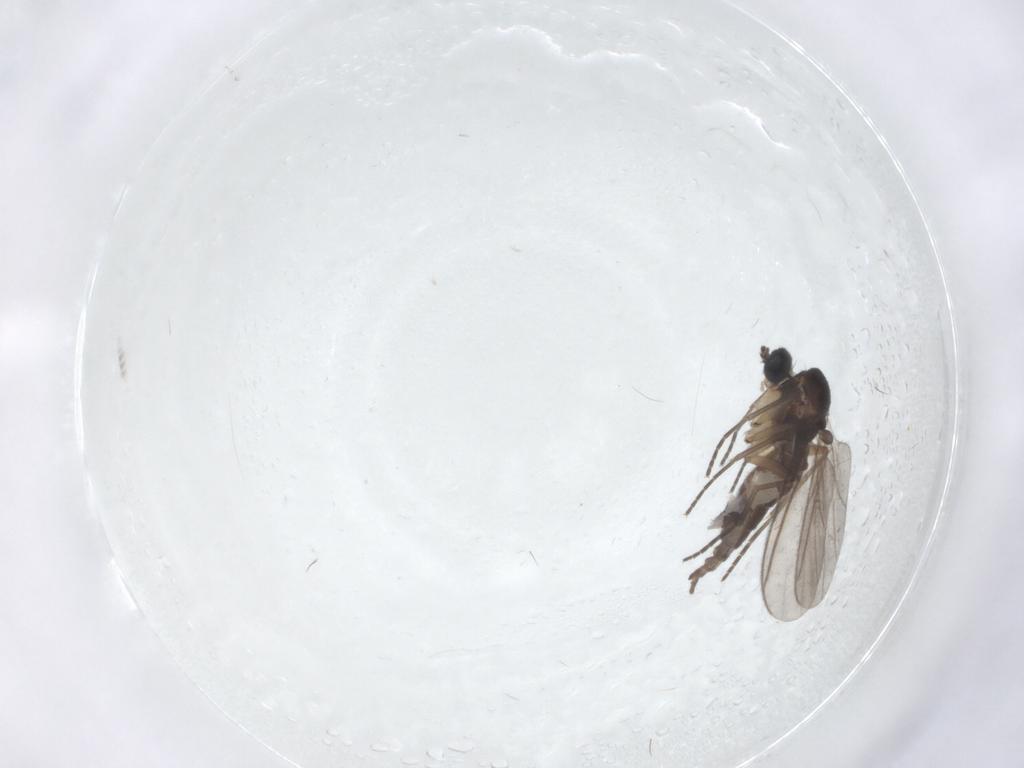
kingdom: Animalia
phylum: Arthropoda
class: Insecta
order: Diptera
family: Sciaridae
